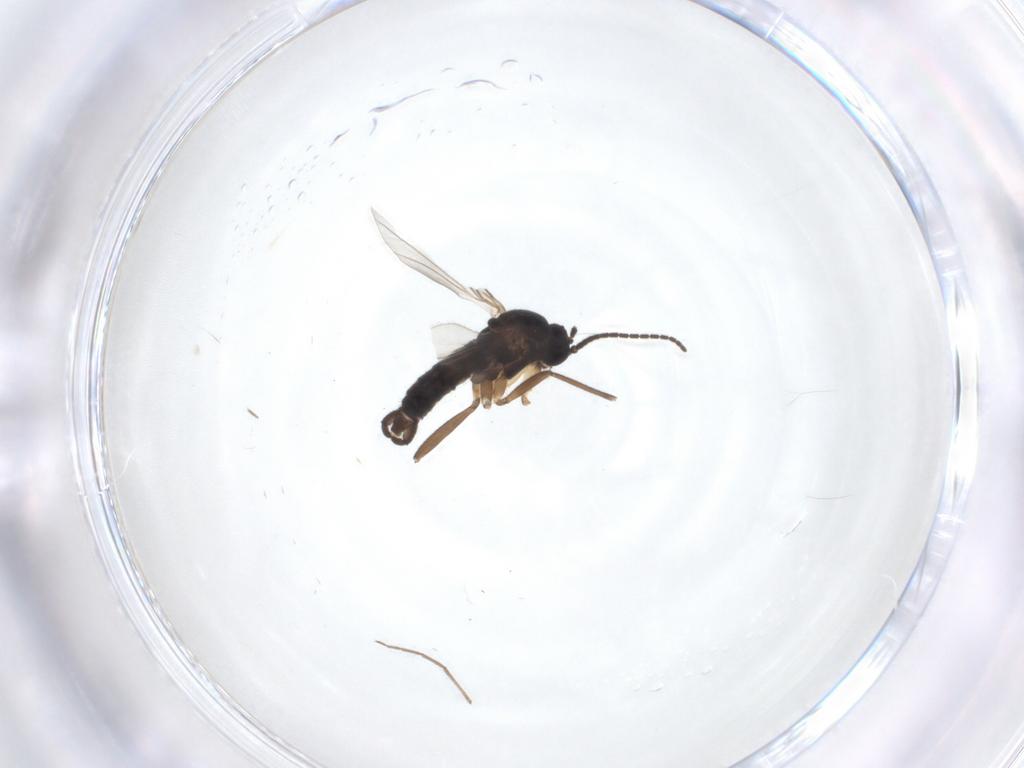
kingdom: Animalia
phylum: Arthropoda
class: Insecta
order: Diptera
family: Sciaridae
